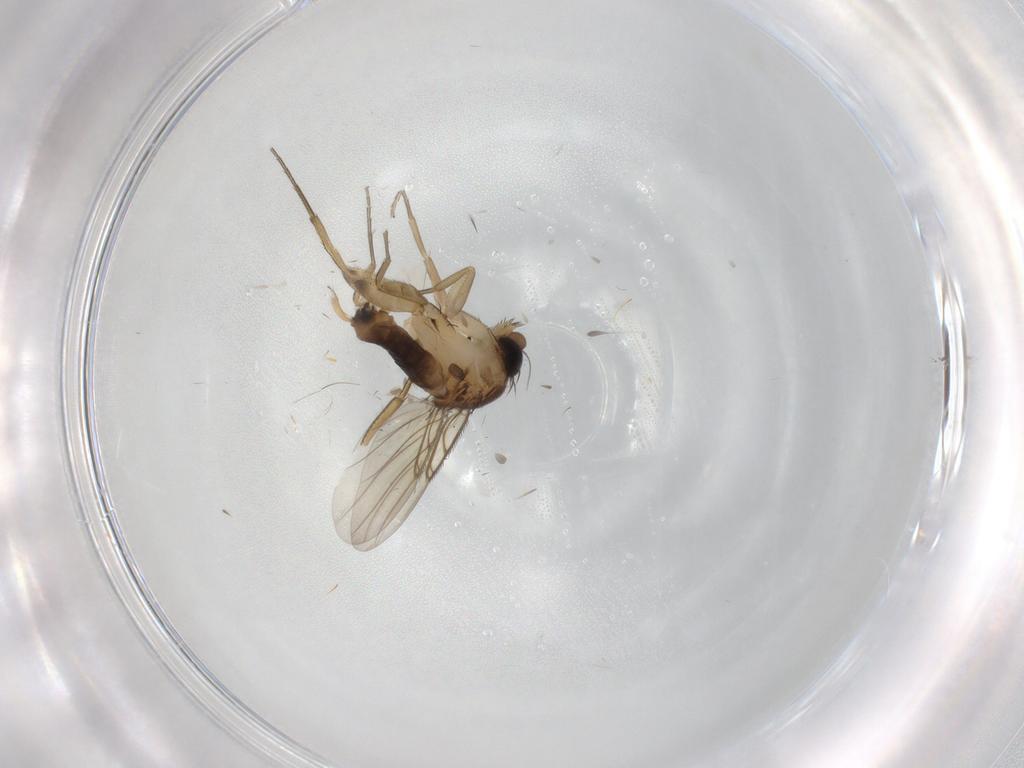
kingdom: Animalia
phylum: Arthropoda
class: Insecta
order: Diptera
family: Phoridae
